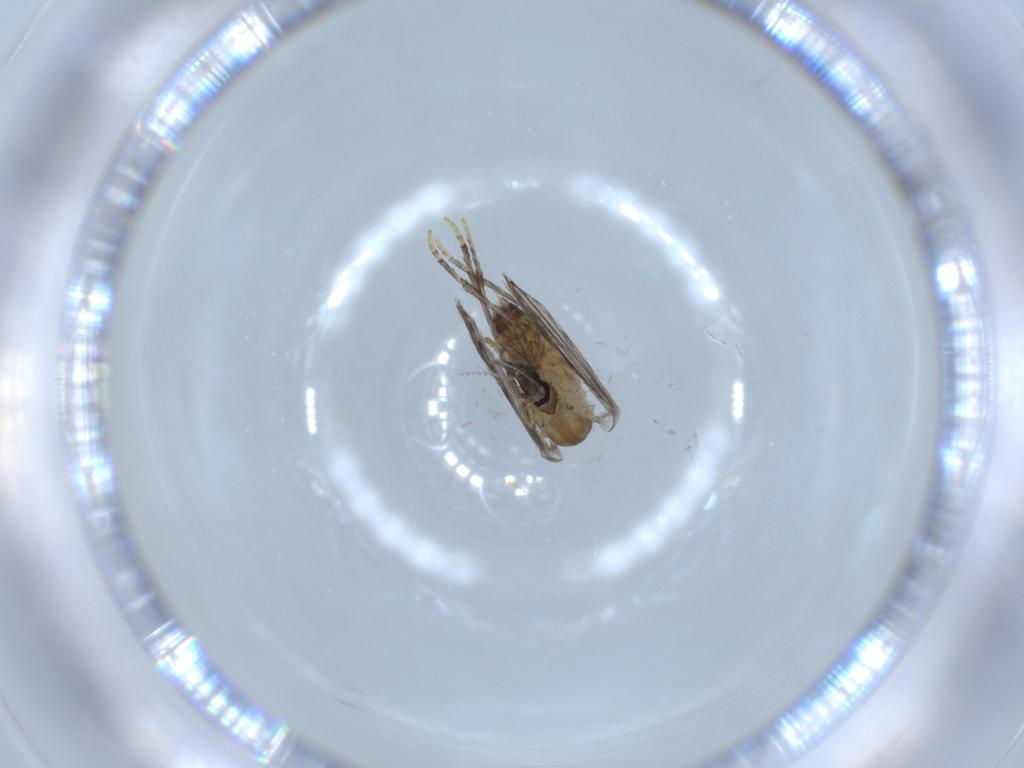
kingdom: Animalia
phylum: Arthropoda
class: Insecta
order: Diptera
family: Psychodidae
